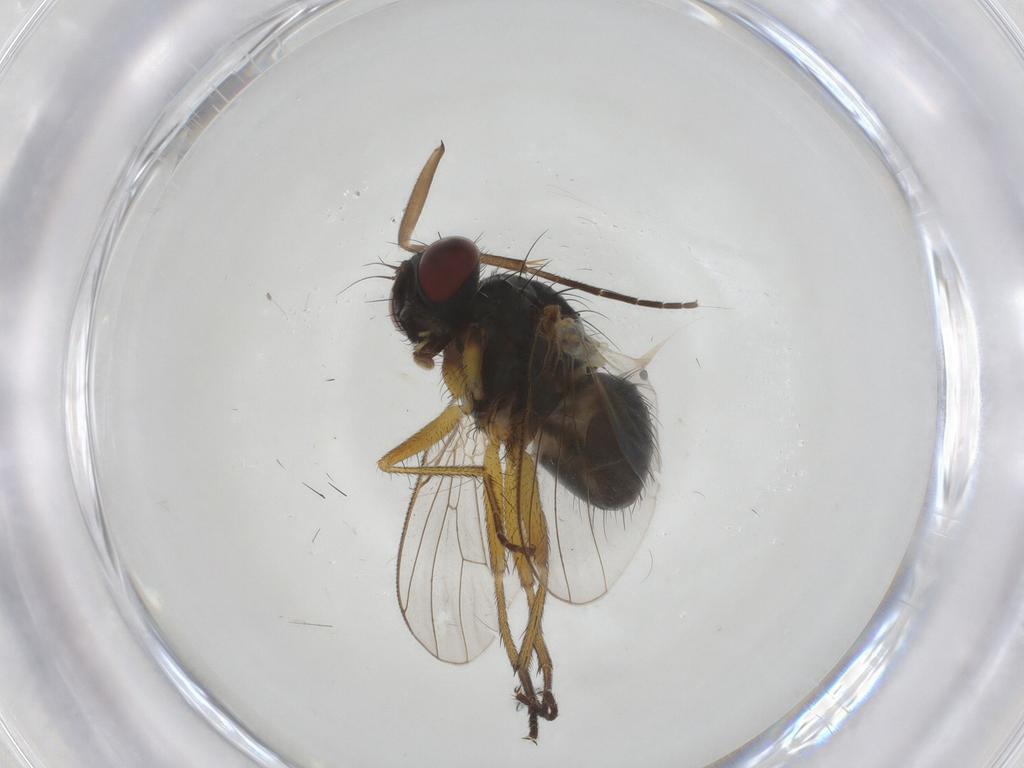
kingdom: Animalia
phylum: Arthropoda
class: Insecta
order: Diptera
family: Muscidae
